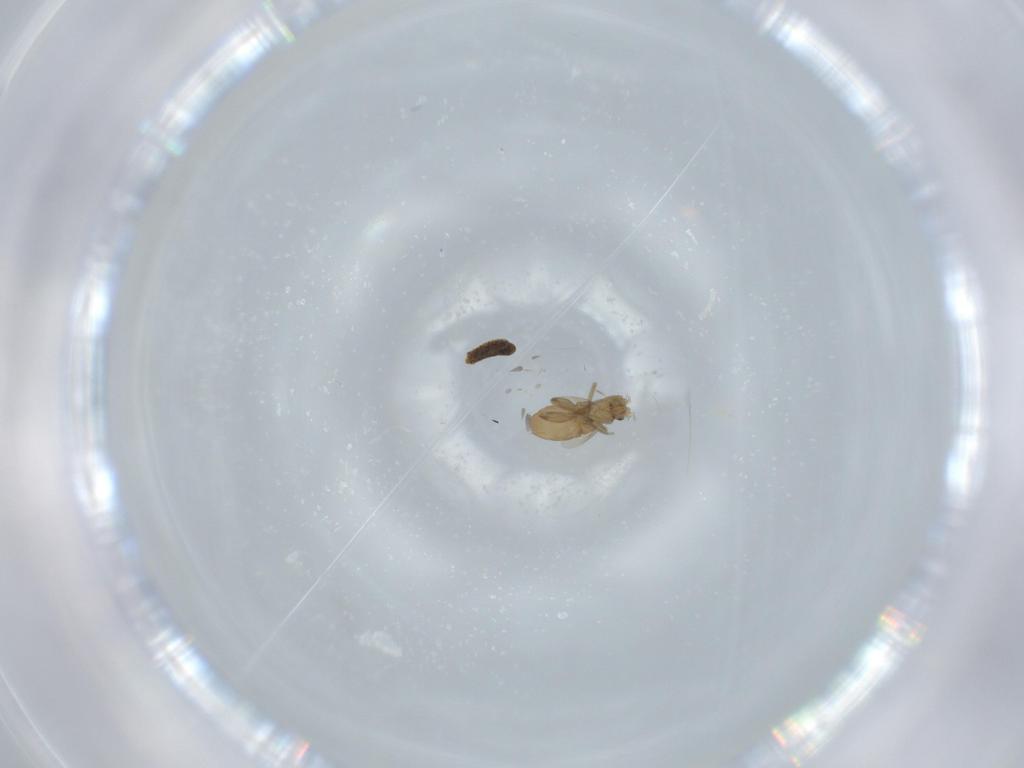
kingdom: Animalia
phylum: Arthropoda
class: Insecta
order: Diptera
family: Phoridae
